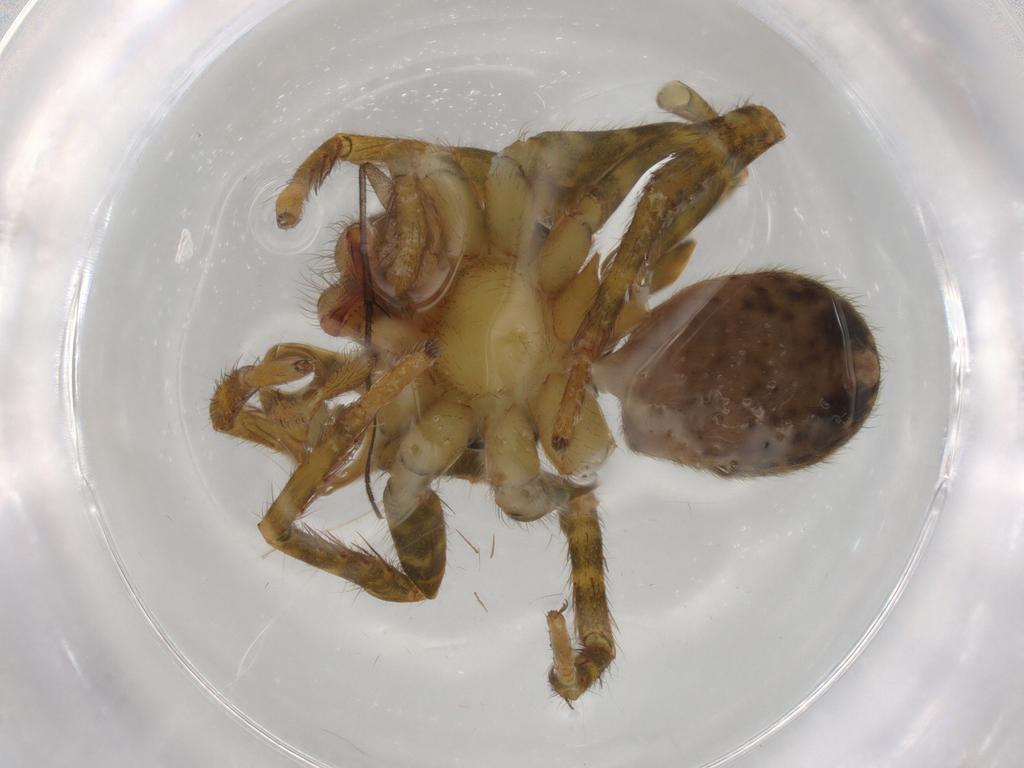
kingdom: Animalia
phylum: Arthropoda
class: Arachnida
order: Araneae
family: Ctenidae
